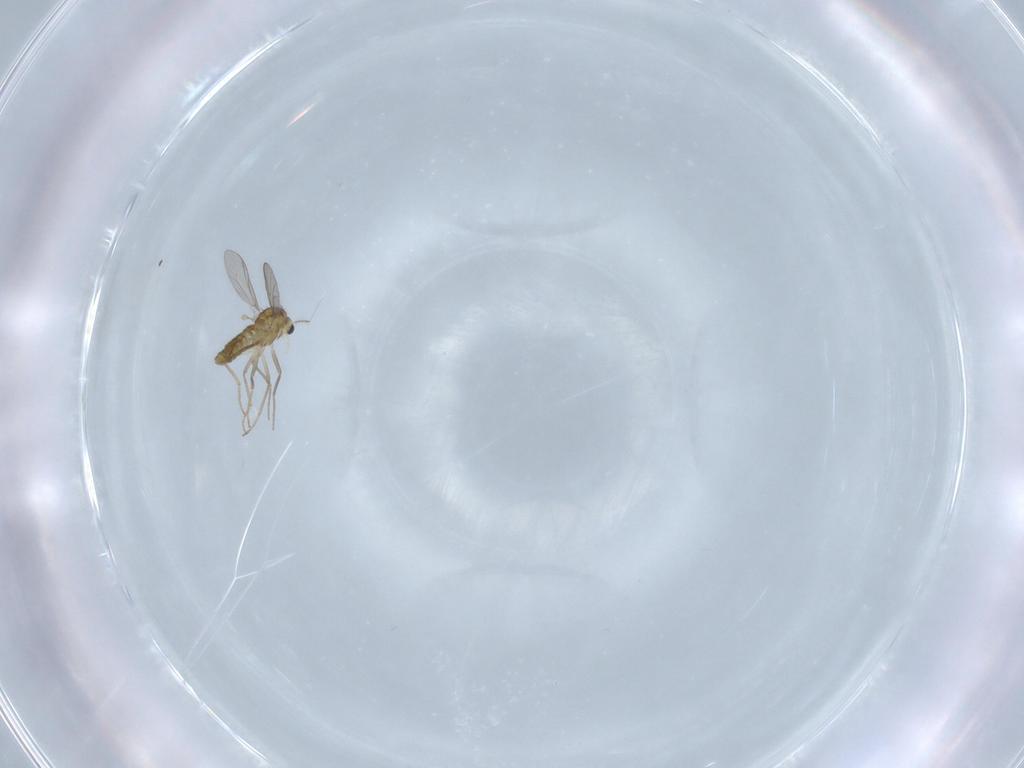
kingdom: Animalia
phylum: Arthropoda
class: Insecta
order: Diptera
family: Chironomidae
